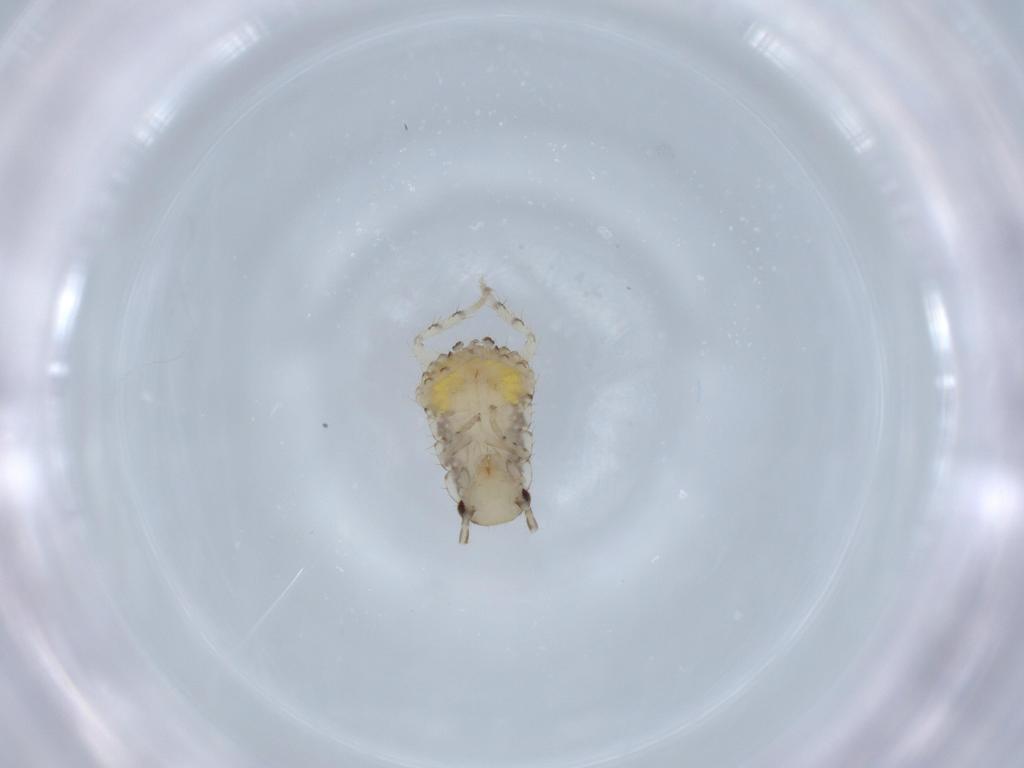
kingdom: Animalia
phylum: Arthropoda
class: Insecta
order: Blattodea
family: Ectobiidae
